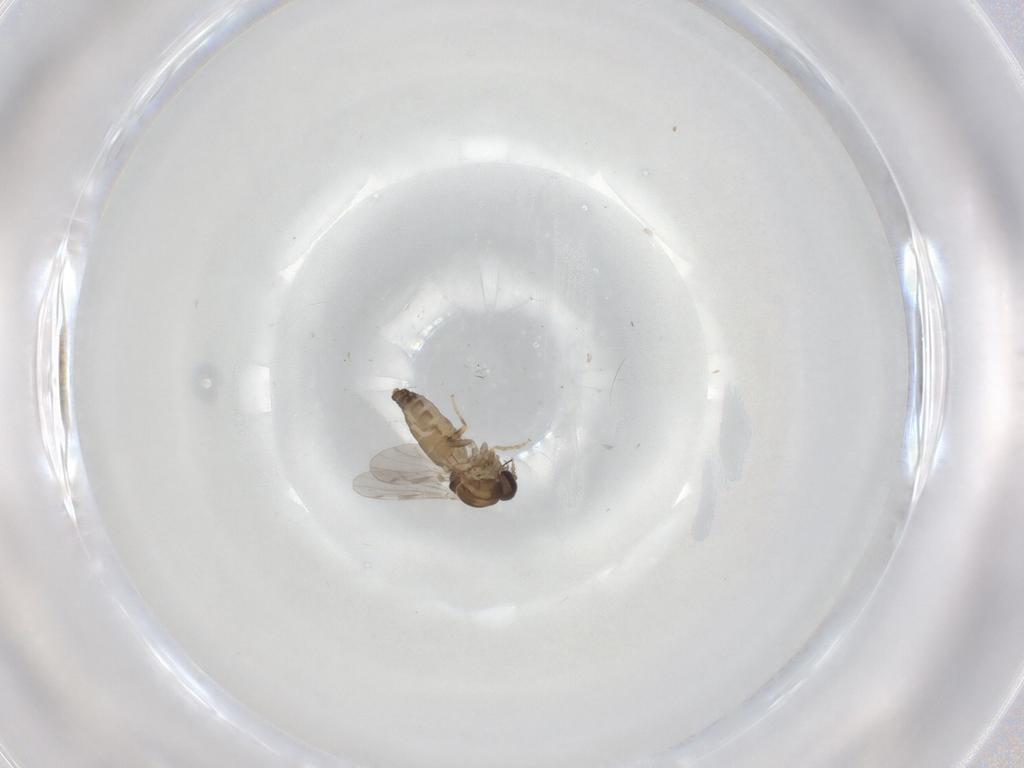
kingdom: Animalia
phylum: Arthropoda
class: Insecta
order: Diptera
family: Ceratopogonidae
